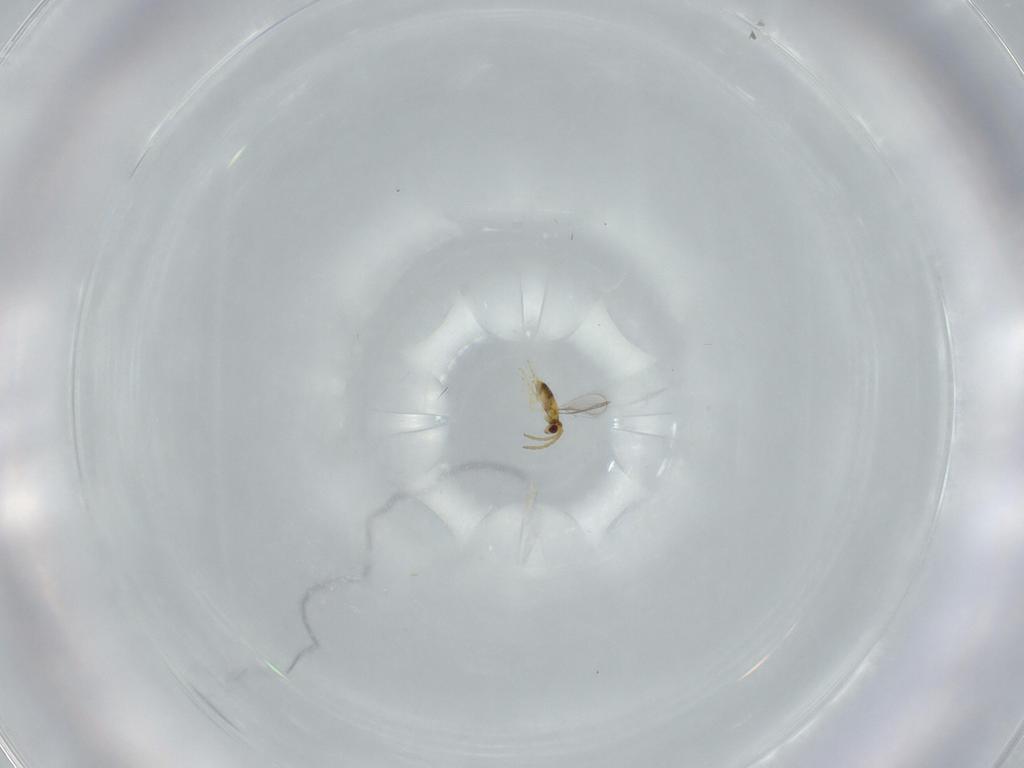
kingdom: Animalia
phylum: Arthropoda
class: Insecta
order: Hymenoptera
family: Aphelinidae
